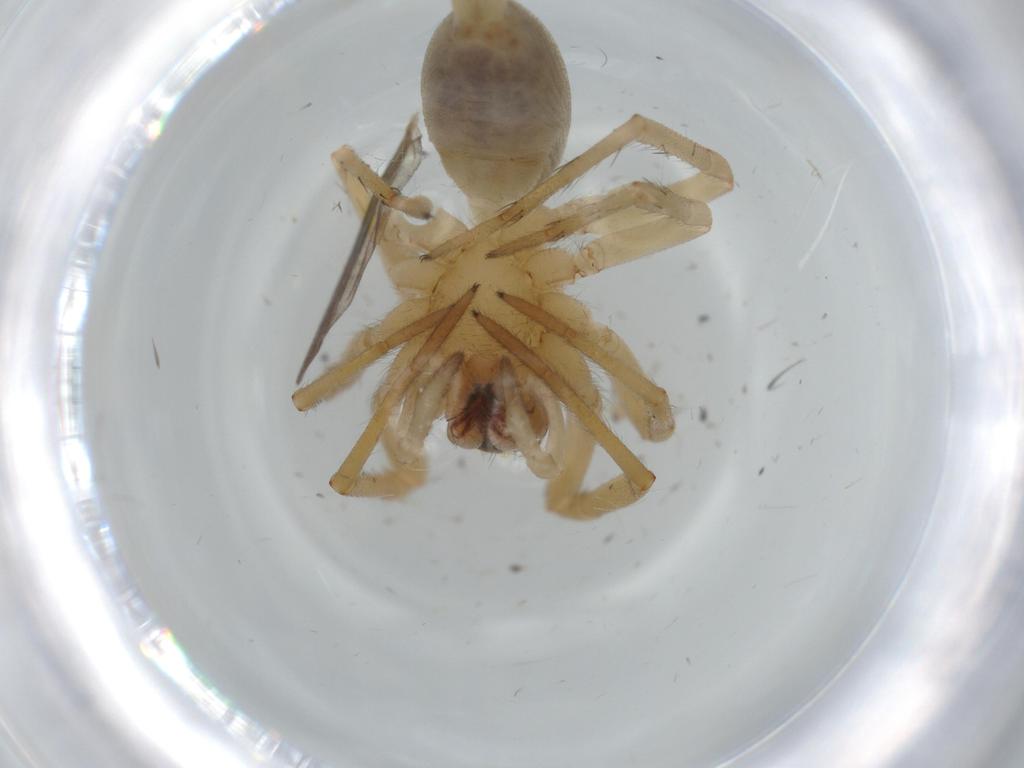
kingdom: Animalia
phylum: Arthropoda
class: Arachnida
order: Araneae
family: Cheiracanthiidae
